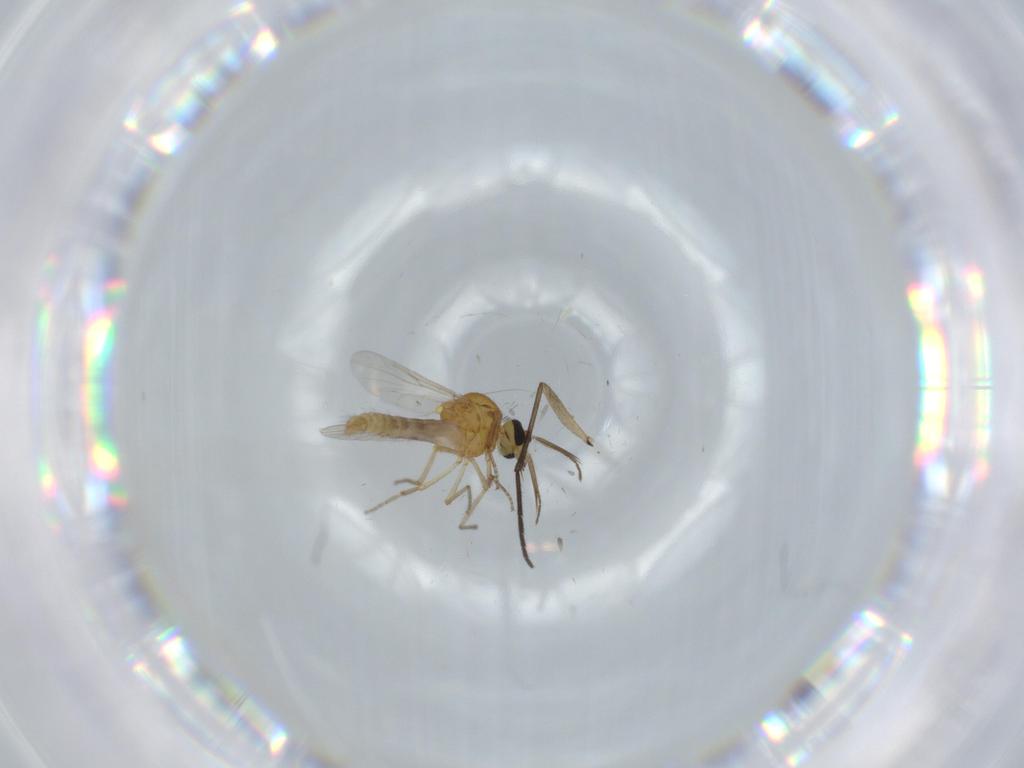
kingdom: Animalia
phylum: Arthropoda
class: Insecta
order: Diptera
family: Ceratopogonidae
